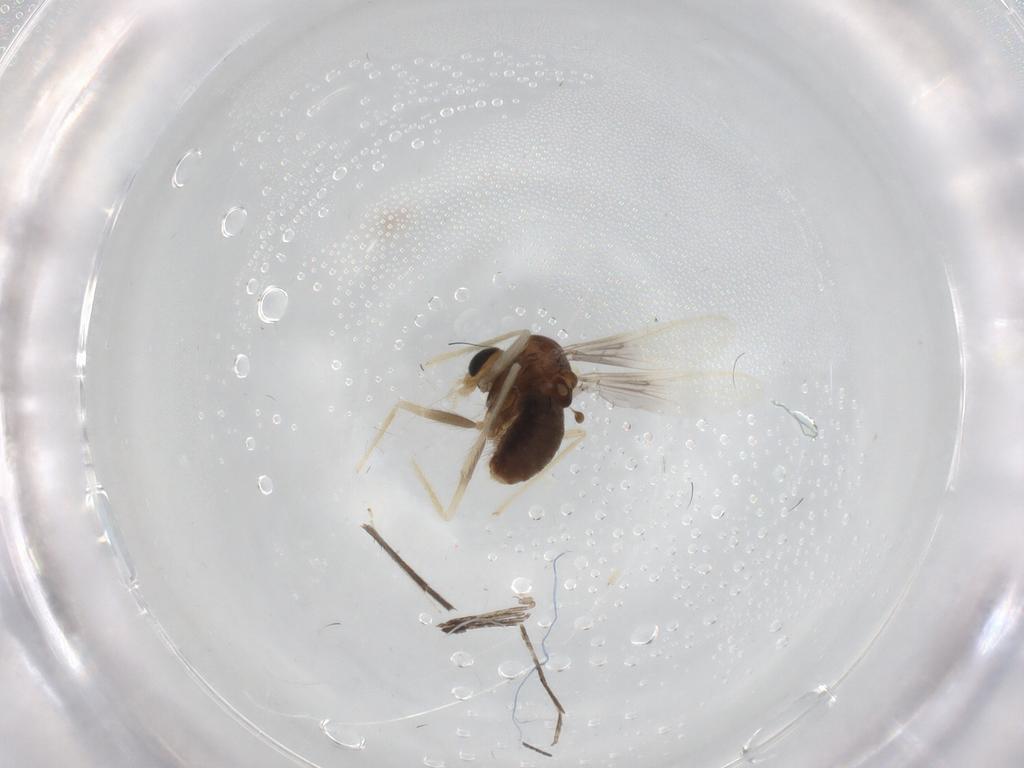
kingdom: Animalia
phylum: Arthropoda
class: Insecta
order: Diptera
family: Chironomidae
